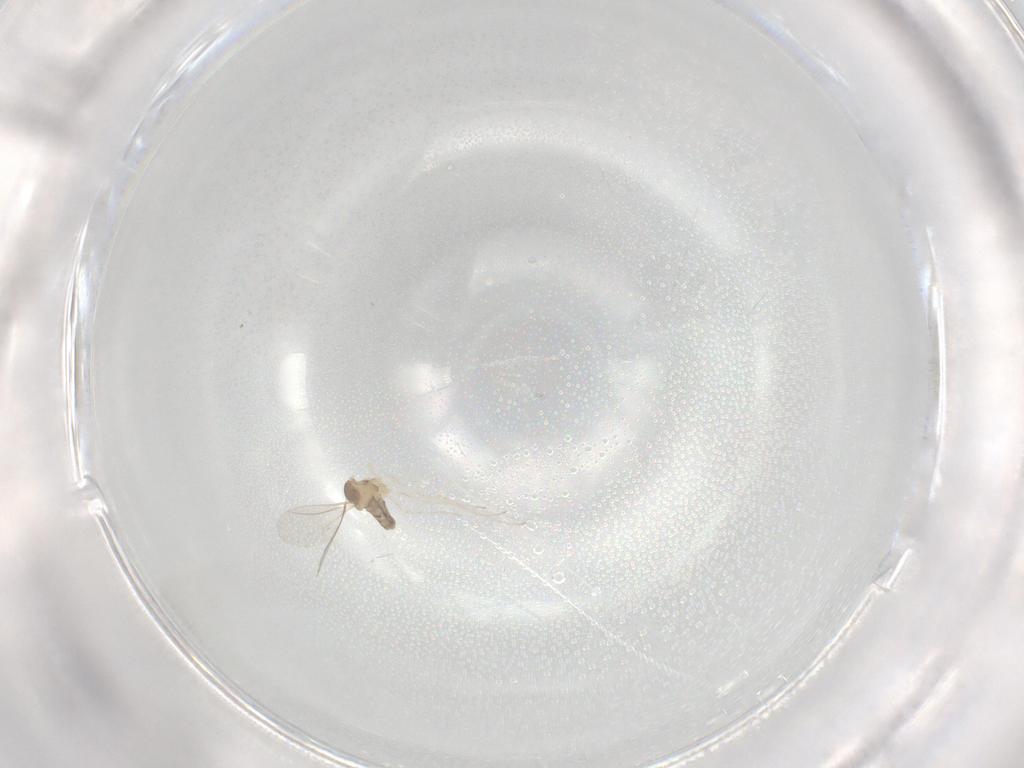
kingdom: Animalia
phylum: Arthropoda
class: Insecta
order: Diptera
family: Cecidomyiidae
